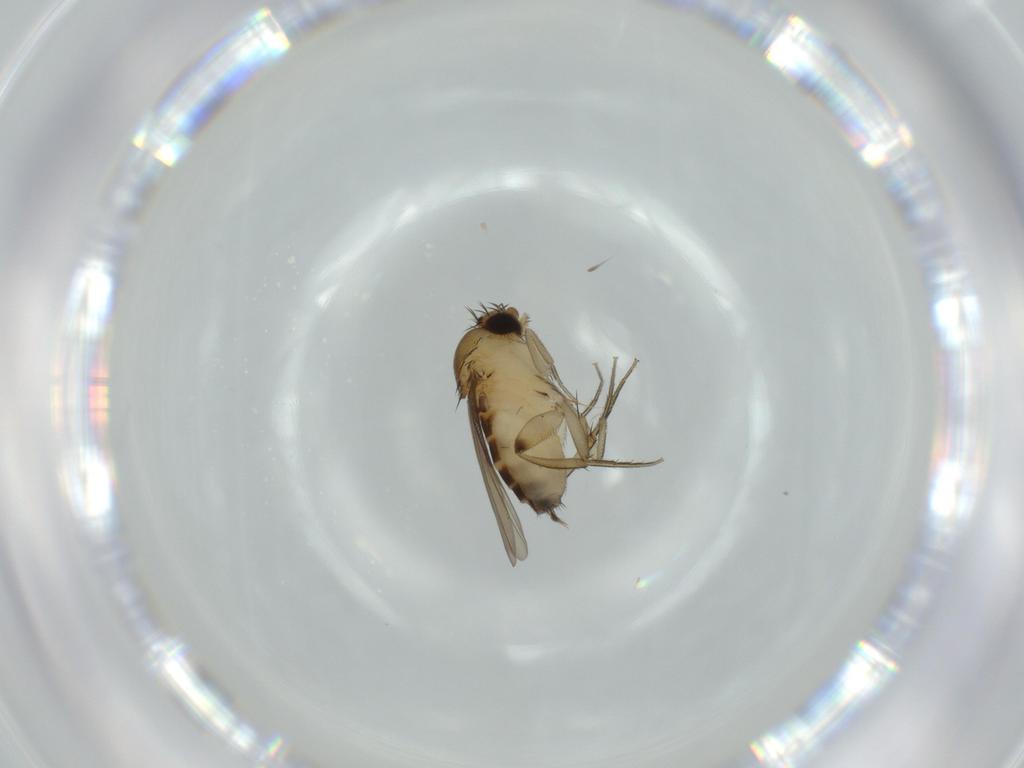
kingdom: Animalia
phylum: Arthropoda
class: Insecta
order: Diptera
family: Phoridae
